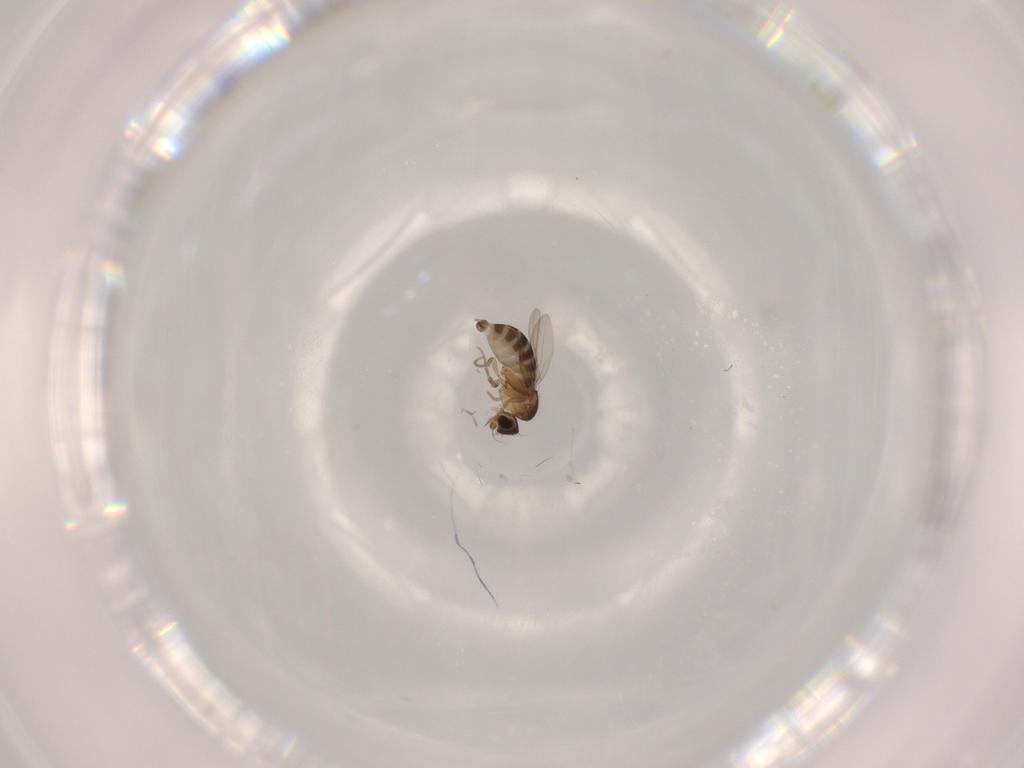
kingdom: Animalia
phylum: Arthropoda
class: Insecta
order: Diptera
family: Phoridae
